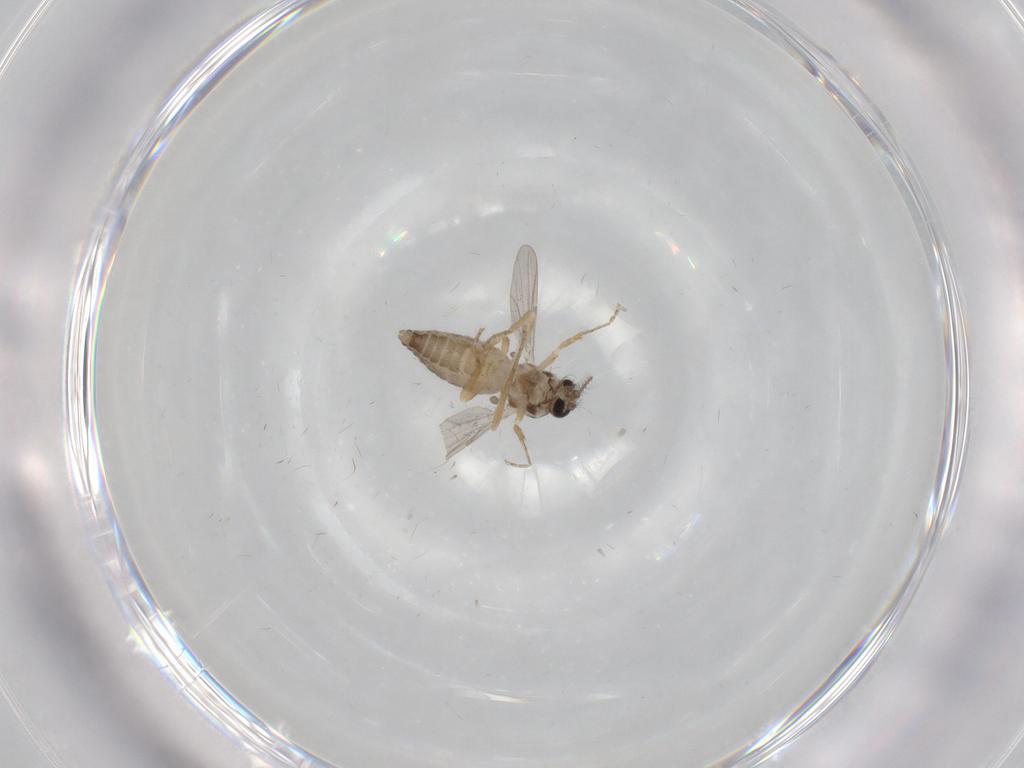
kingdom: Animalia
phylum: Arthropoda
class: Insecta
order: Diptera
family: Ceratopogonidae
